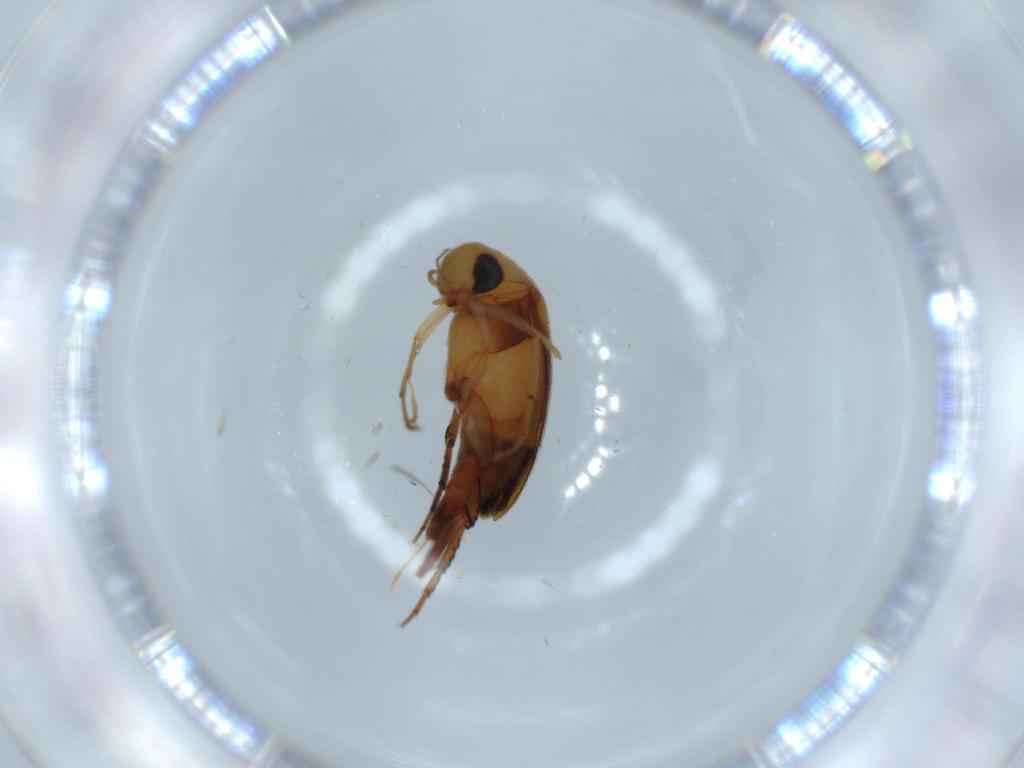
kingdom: Animalia
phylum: Arthropoda
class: Insecta
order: Coleoptera
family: Mordellidae
